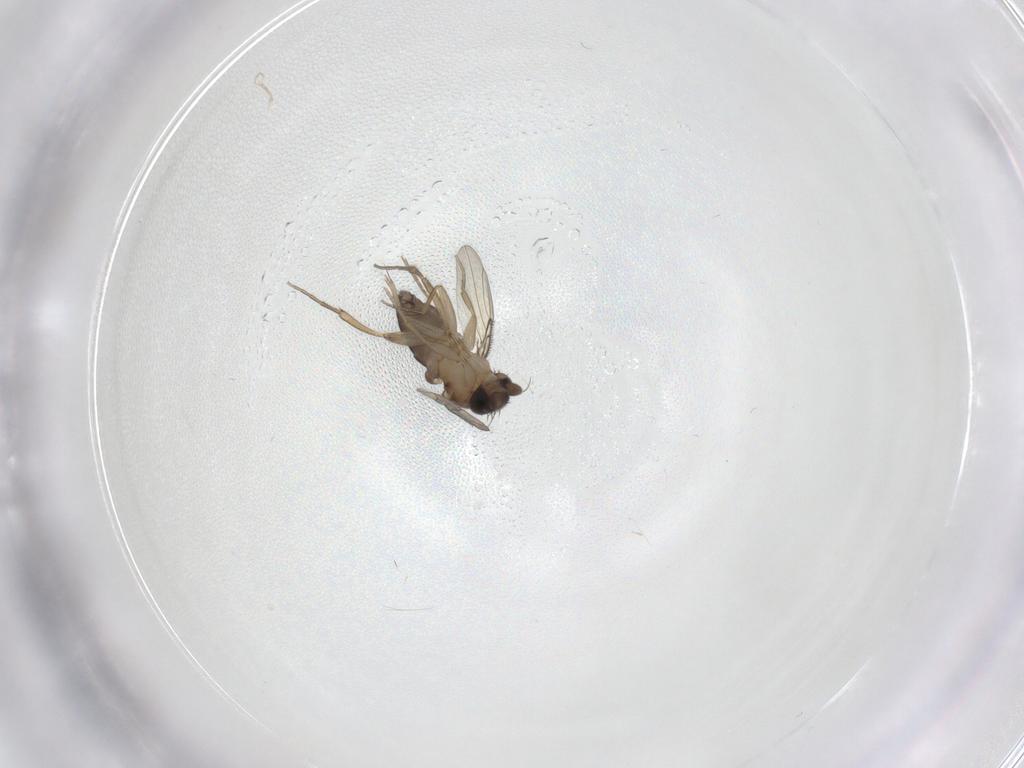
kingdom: Animalia
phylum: Arthropoda
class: Insecta
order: Diptera
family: Phoridae
